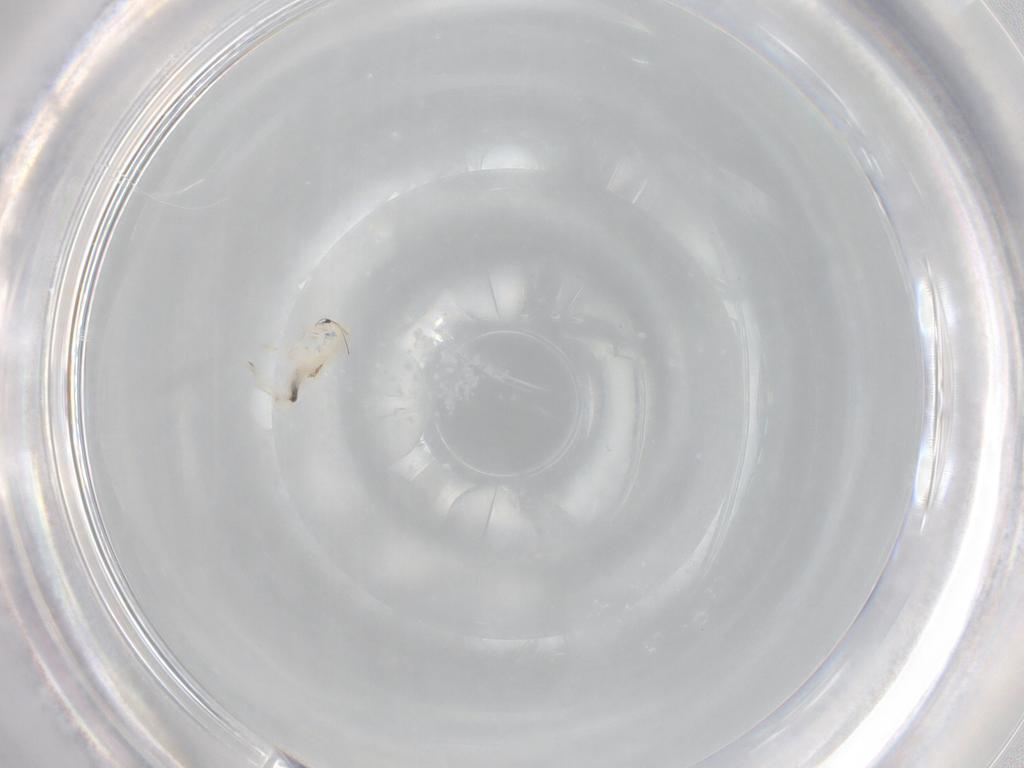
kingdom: Animalia
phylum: Arthropoda
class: Collembola
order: Entomobryomorpha
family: Entomobryidae
